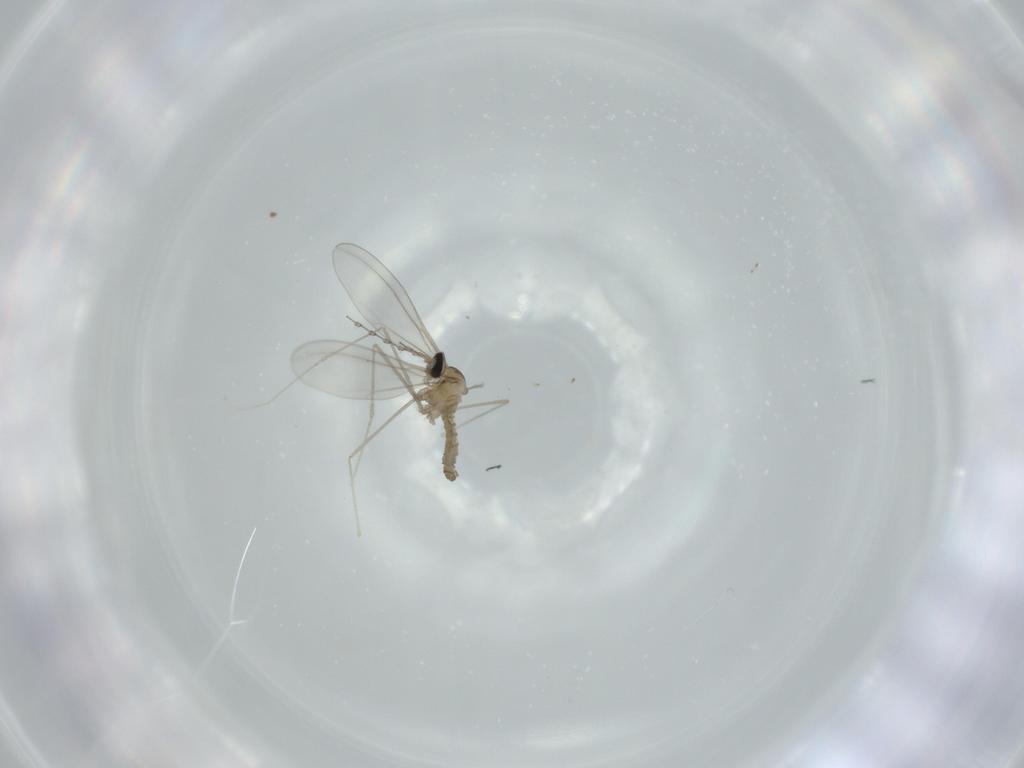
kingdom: Animalia
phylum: Arthropoda
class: Insecta
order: Diptera
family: Cecidomyiidae
